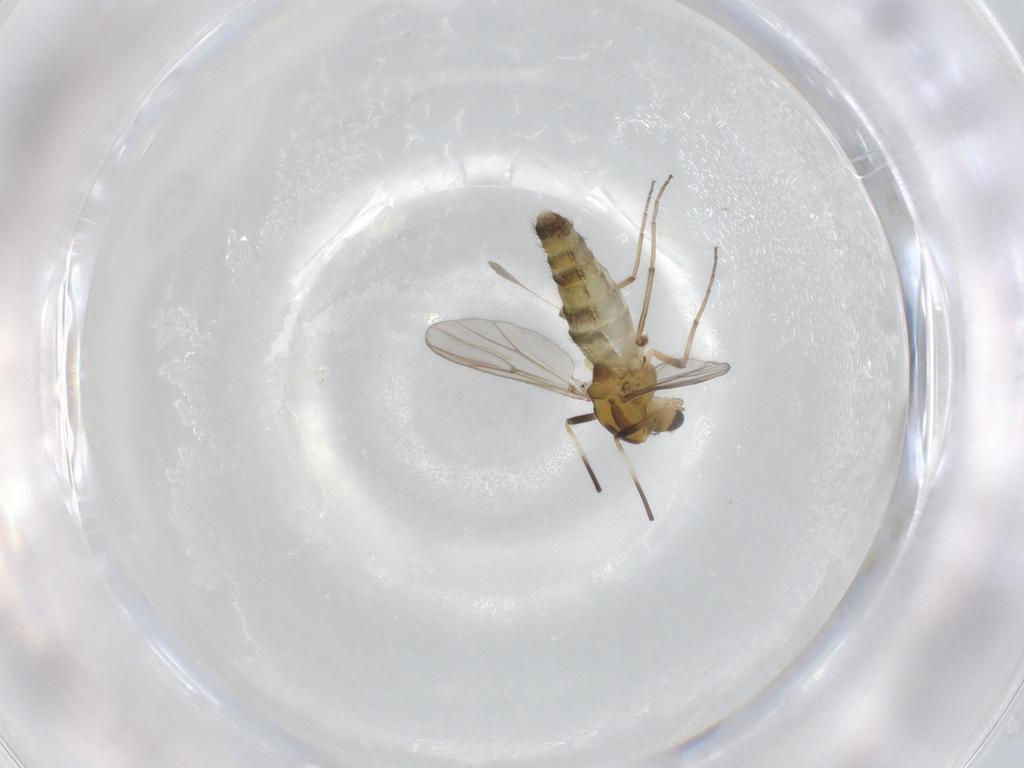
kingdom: Animalia
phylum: Arthropoda
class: Insecta
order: Diptera
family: Chironomidae
